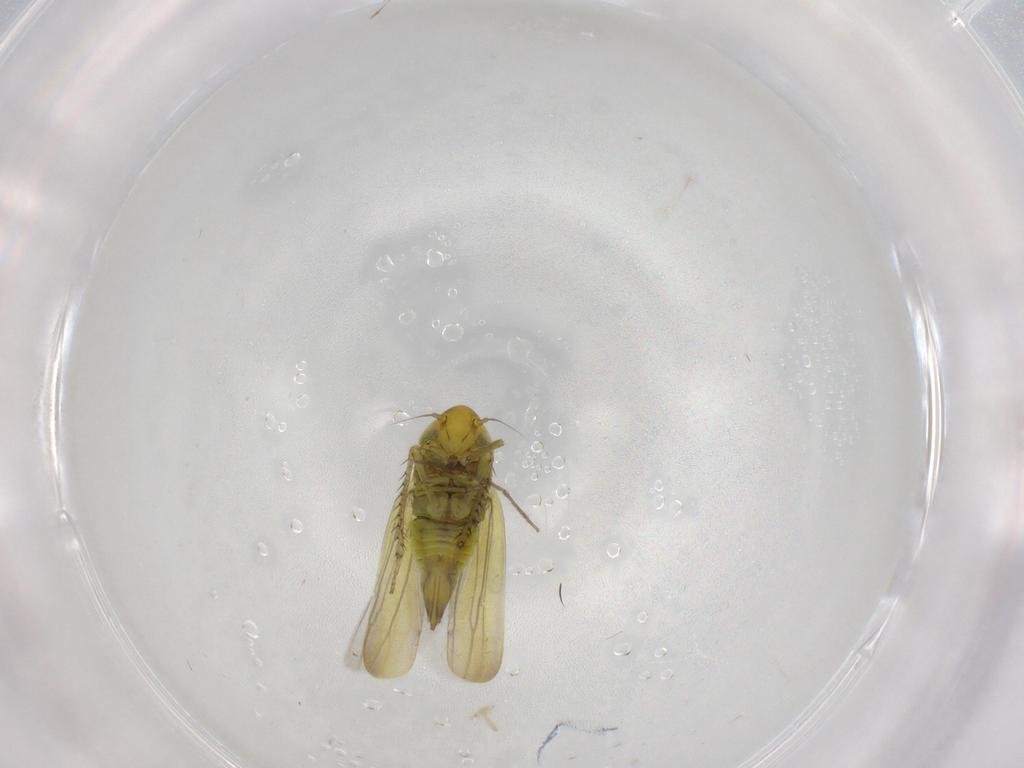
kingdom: Animalia
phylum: Arthropoda
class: Insecta
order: Hemiptera
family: Cicadellidae
